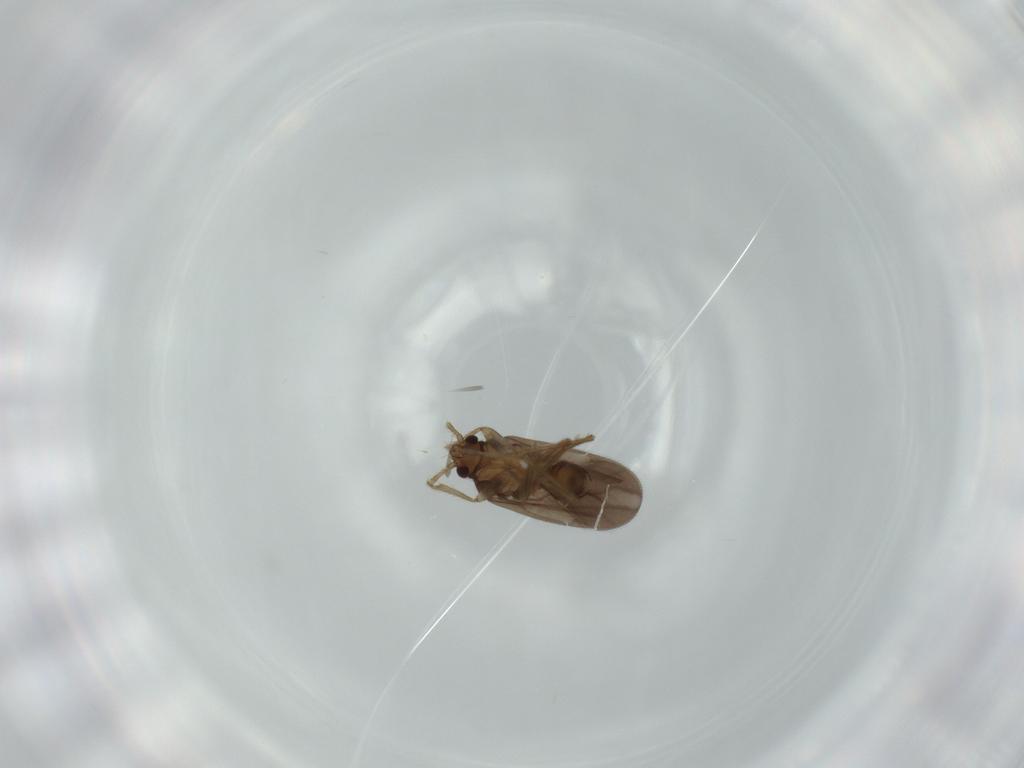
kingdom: Animalia
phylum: Arthropoda
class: Insecta
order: Hemiptera
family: Ceratocombidae
